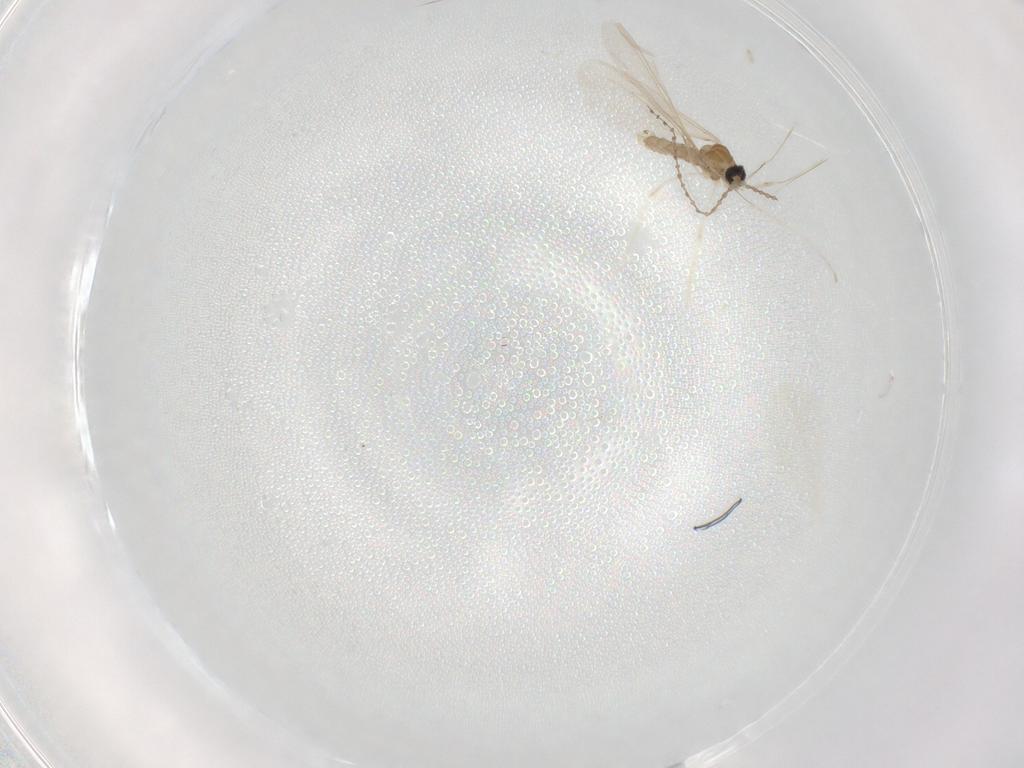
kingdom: Animalia
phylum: Arthropoda
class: Insecta
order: Diptera
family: Cecidomyiidae
